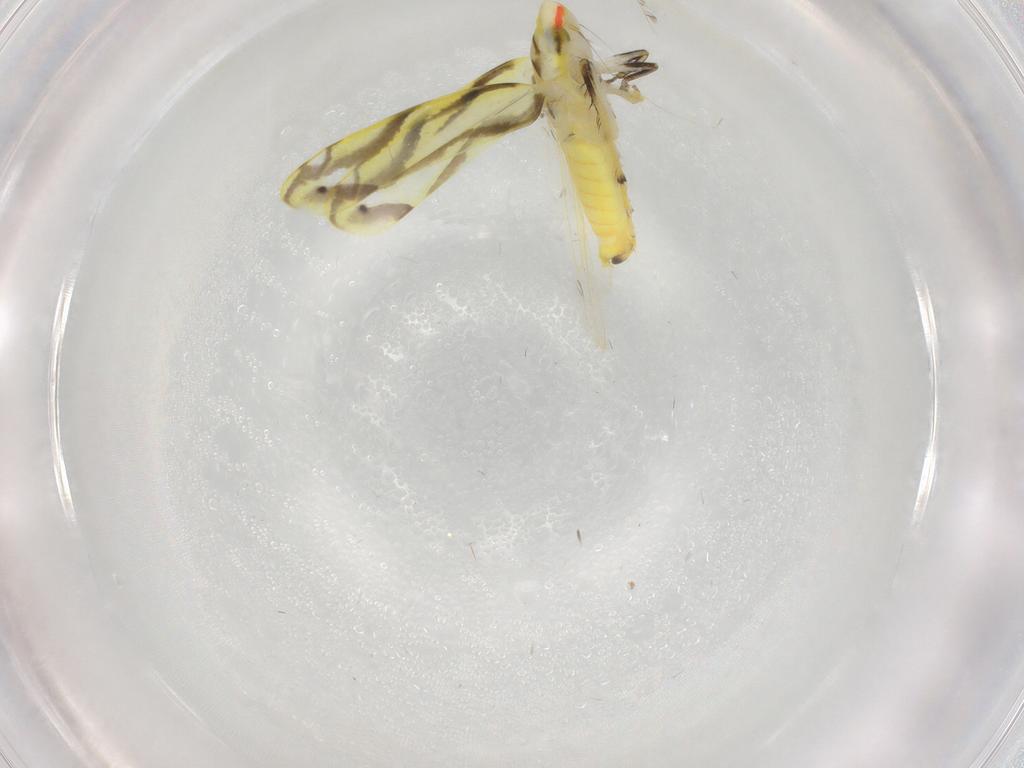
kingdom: Animalia
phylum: Arthropoda
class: Insecta
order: Hemiptera
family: Cicadellidae
